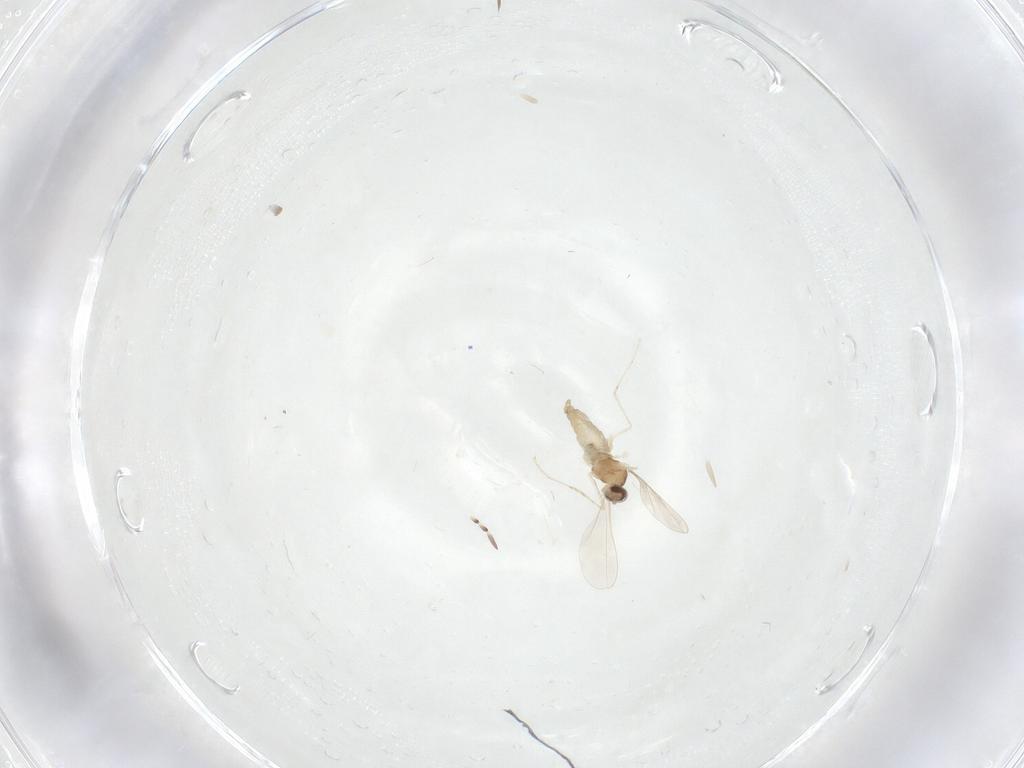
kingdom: Animalia
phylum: Arthropoda
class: Insecta
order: Diptera
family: Cecidomyiidae
